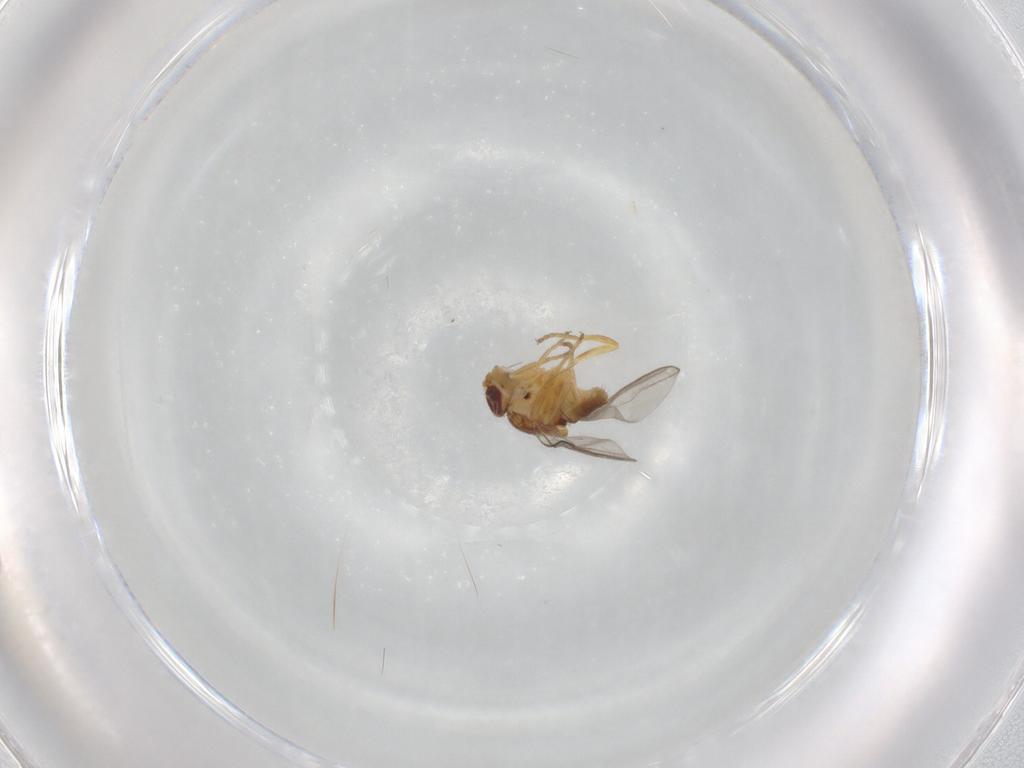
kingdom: Animalia
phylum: Arthropoda
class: Insecta
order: Diptera
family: Chloropidae
